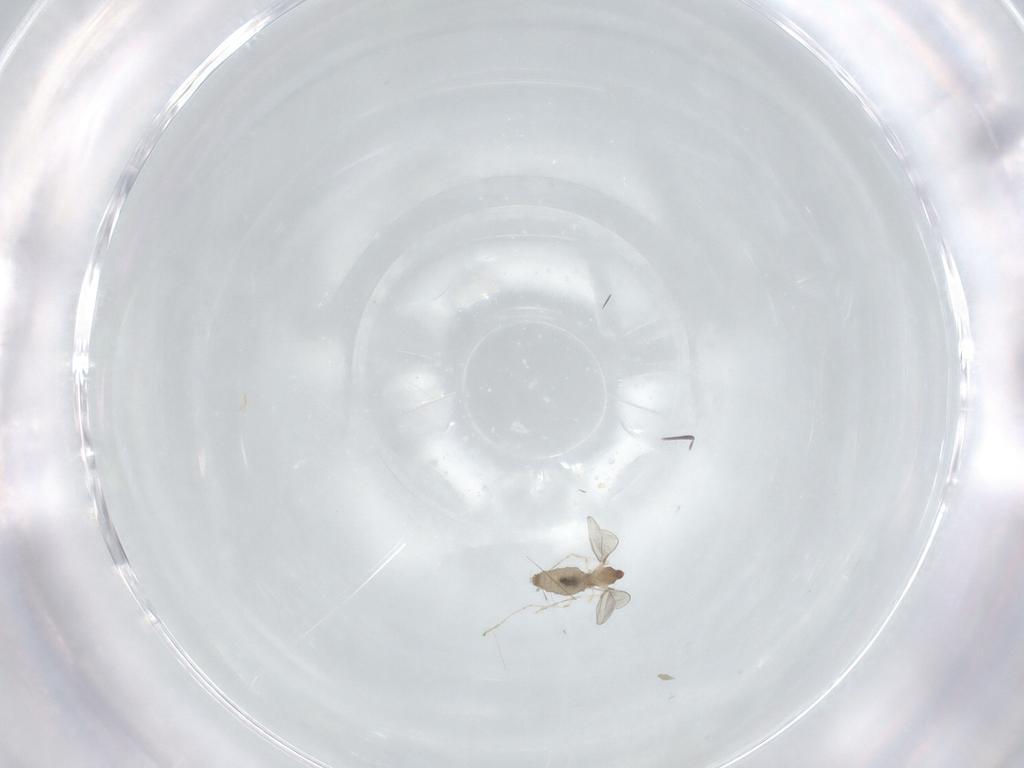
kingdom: Animalia
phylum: Arthropoda
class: Insecta
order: Diptera
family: Cecidomyiidae
